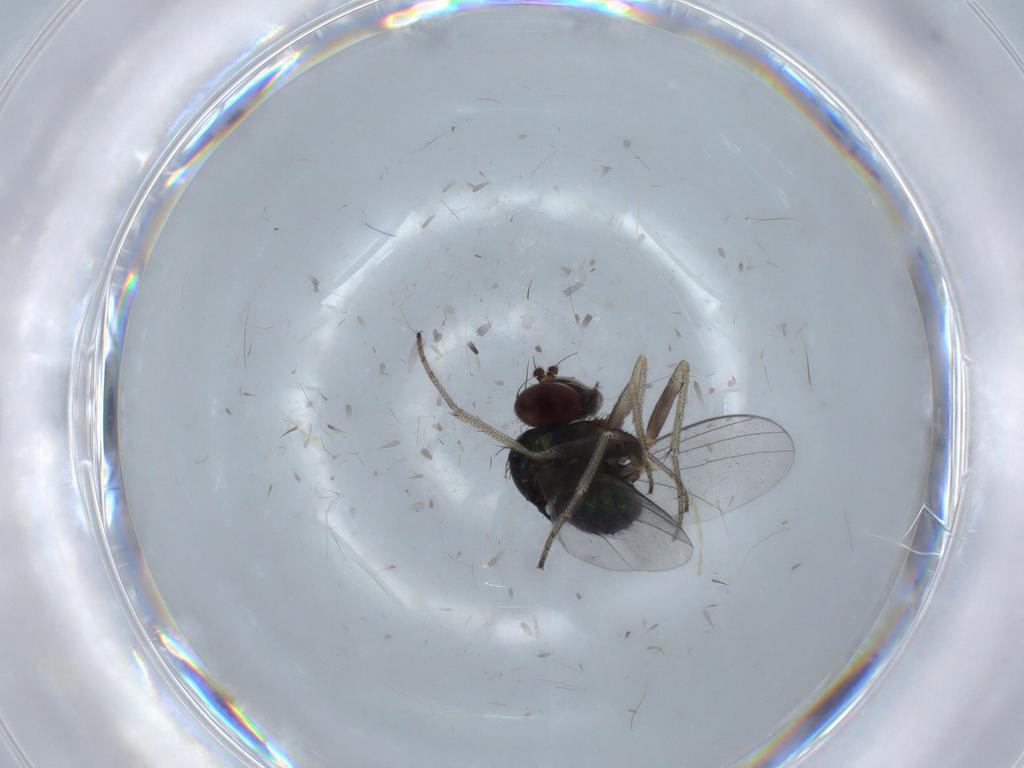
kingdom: Animalia
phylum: Arthropoda
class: Insecta
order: Diptera
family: Chironomidae
